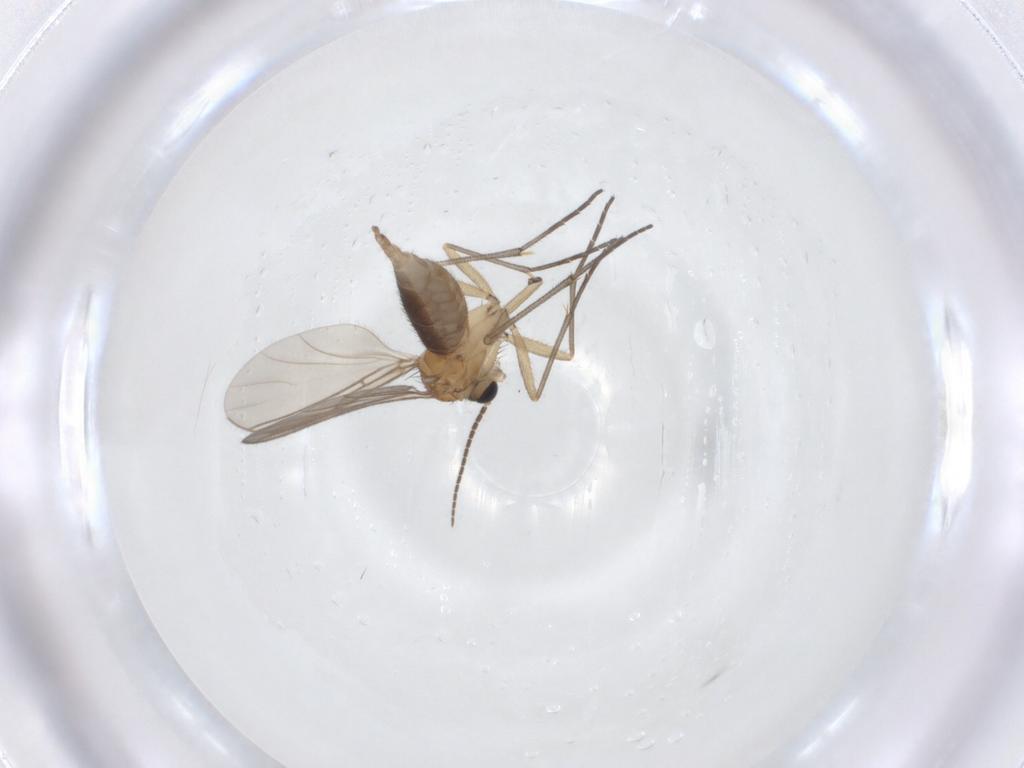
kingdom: Animalia
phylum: Arthropoda
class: Insecta
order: Diptera
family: Sciaridae
